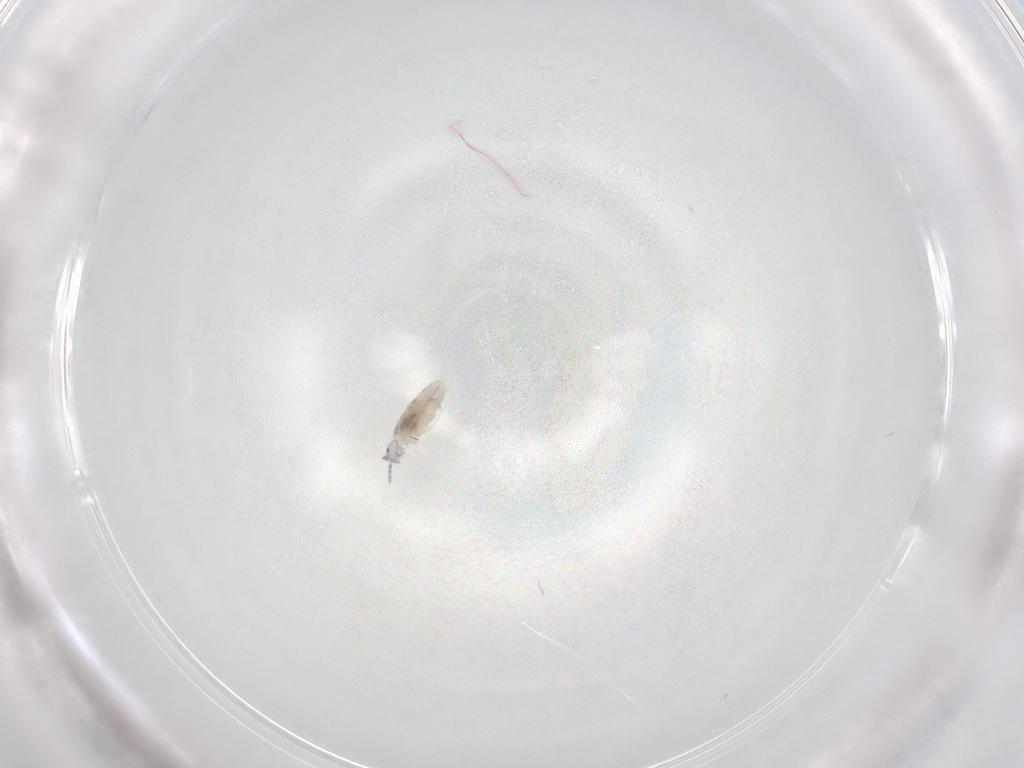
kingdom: Animalia
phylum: Arthropoda
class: Collembola
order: Entomobryomorpha
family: Entomobryidae
